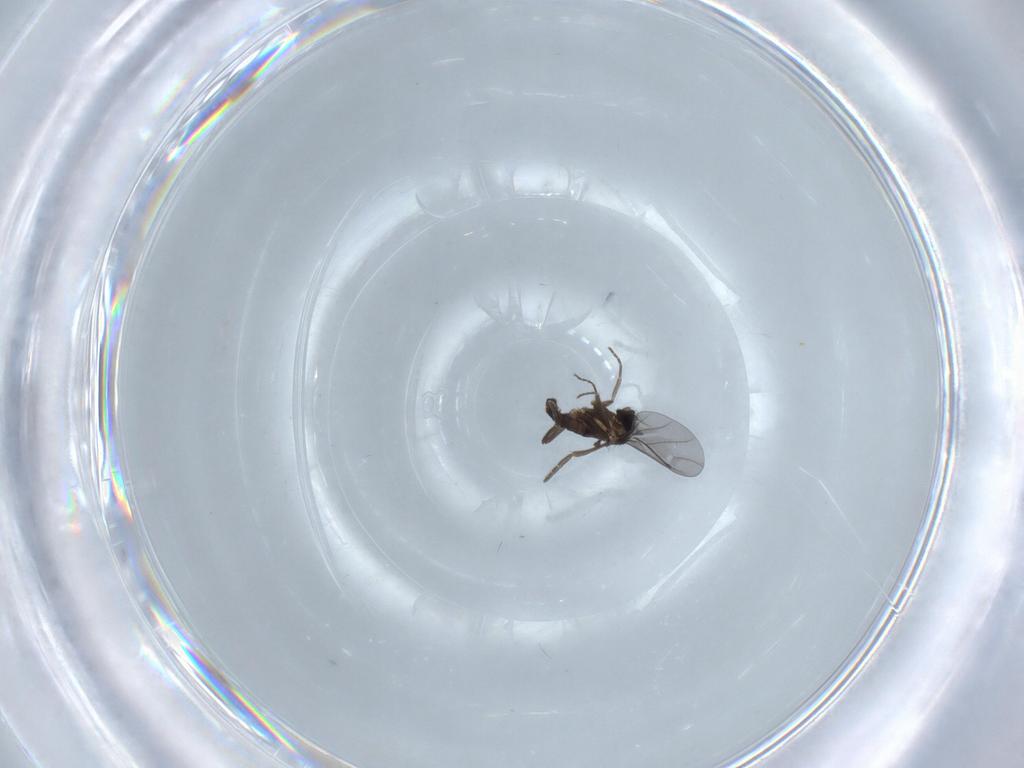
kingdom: Animalia
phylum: Arthropoda
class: Insecta
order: Diptera
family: Phoridae
